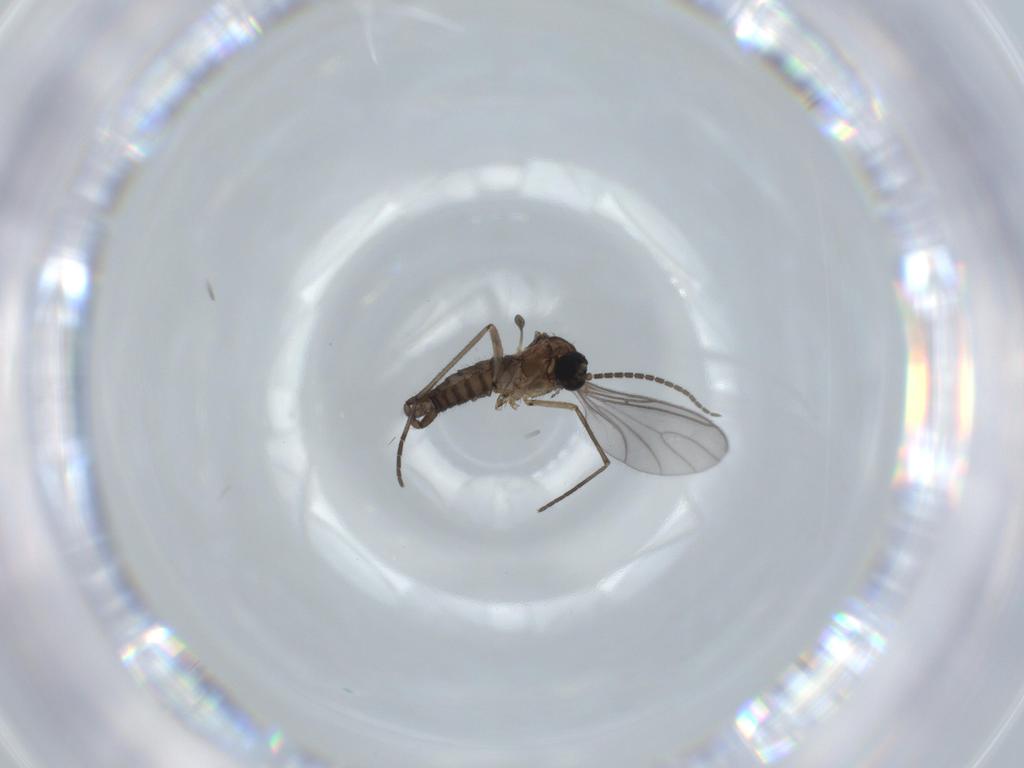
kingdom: Animalia
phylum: Arthropoda
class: Insecta
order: Diptera
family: Sciaridae
